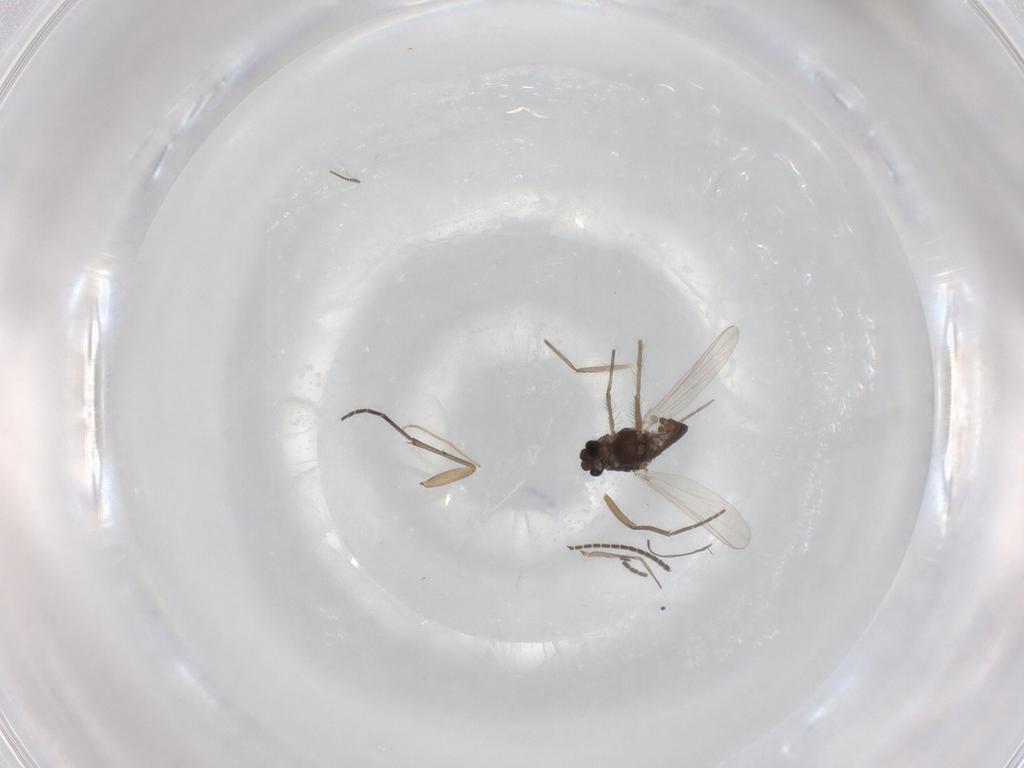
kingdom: Animalia
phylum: Arthropoda
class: Insecta
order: Diptera
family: Chironomidae
